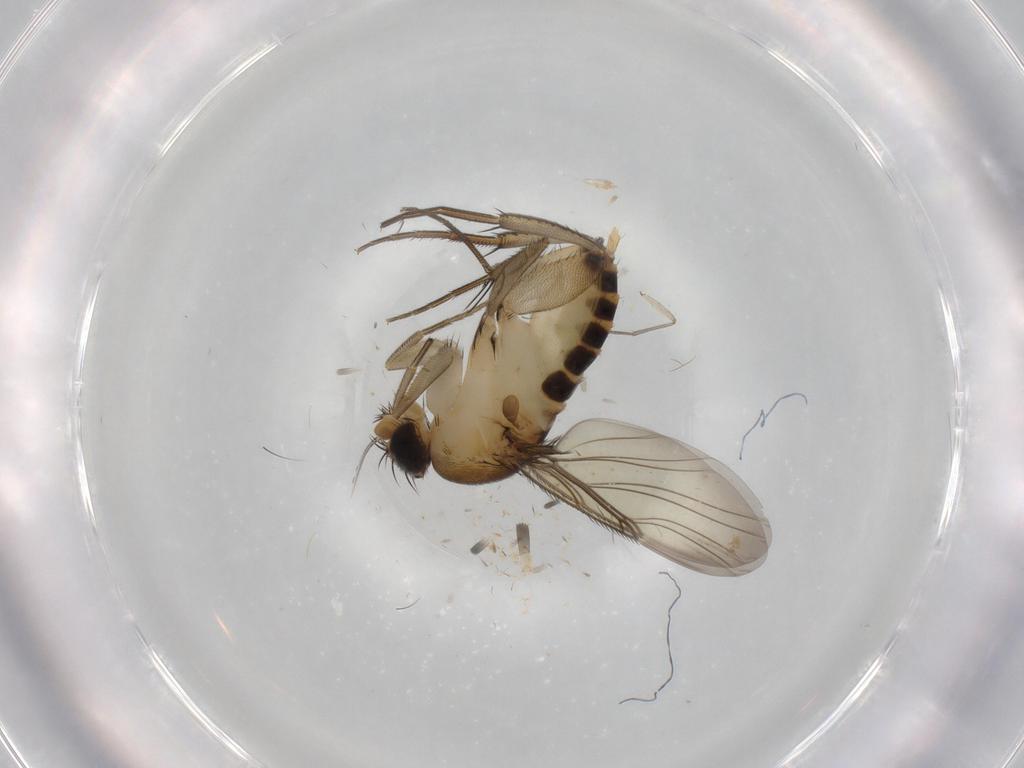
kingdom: Animalia
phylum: Arthropoda
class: Insecta
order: Diptera
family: Phoridae
